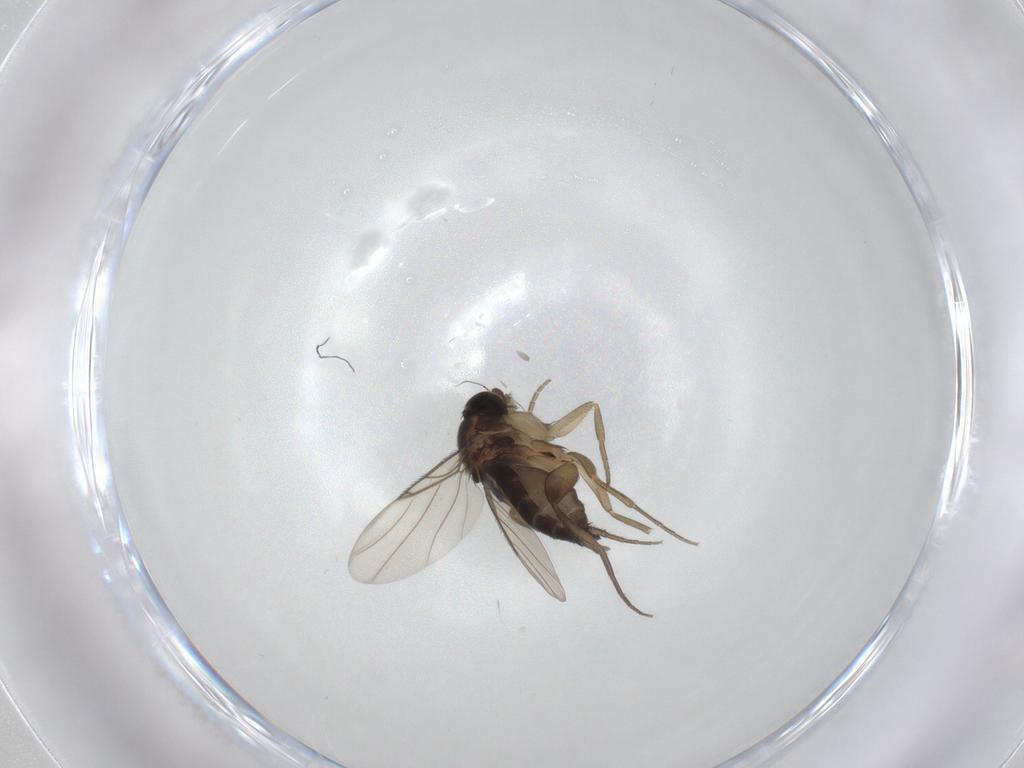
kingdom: Animalia
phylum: Arthropoda
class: Insecta
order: Diptera
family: Phoridae
